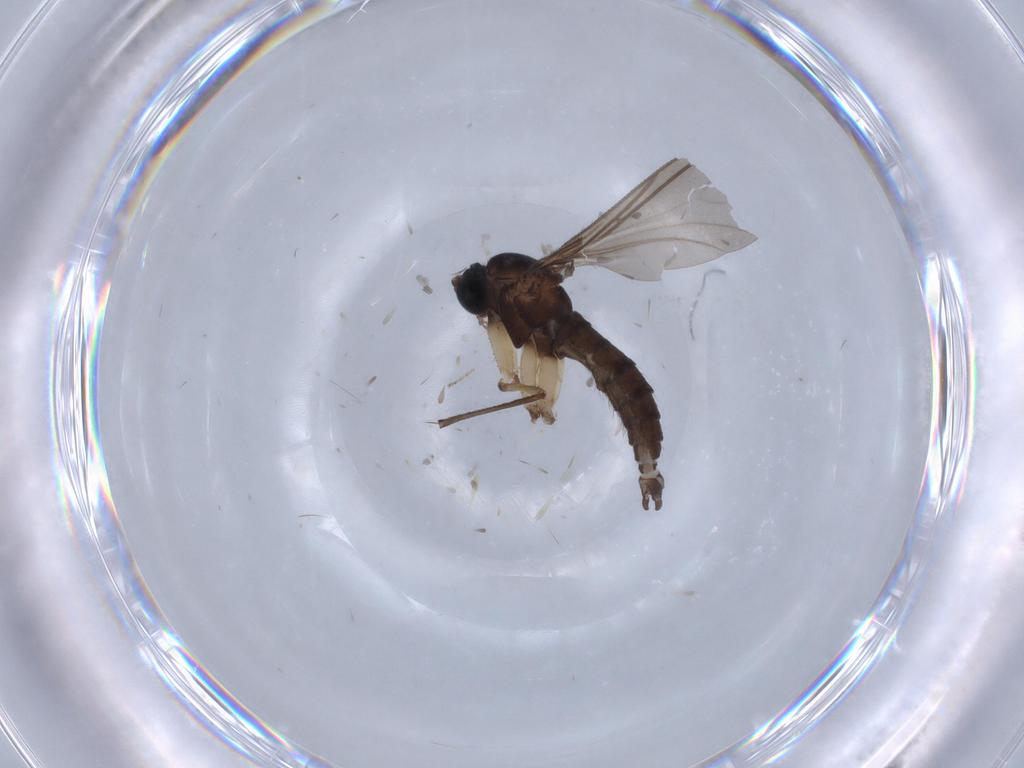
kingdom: Animalia
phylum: Arthropoda
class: Insecta
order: Diptera
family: Sciaridae
